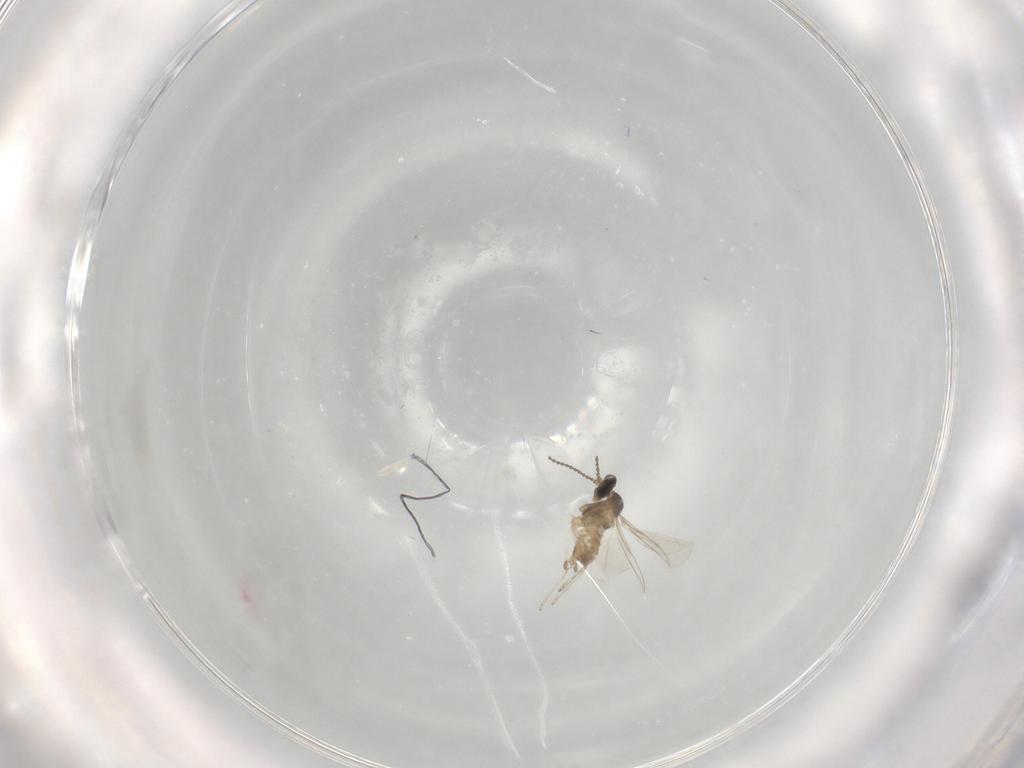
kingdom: Animalia
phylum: Arthropoda
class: Insecta
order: Diptera
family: Cecidomyiidae
